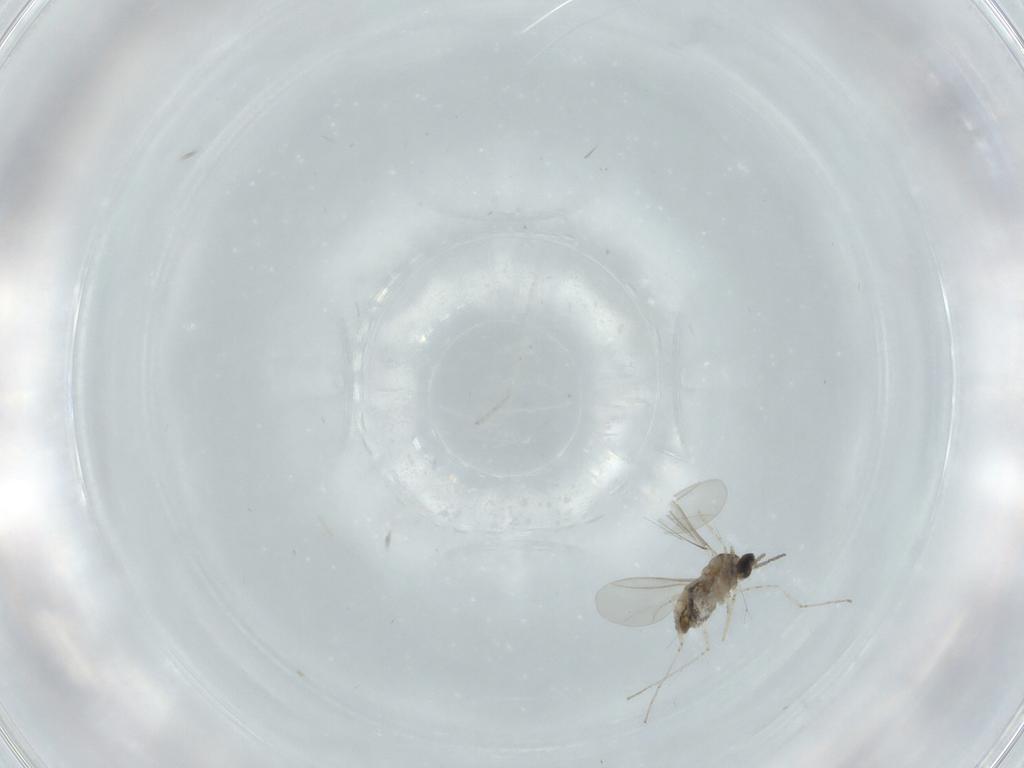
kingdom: Animalia
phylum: Arthropoda
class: Insecta
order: Diptera
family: Cecidomyiidae
